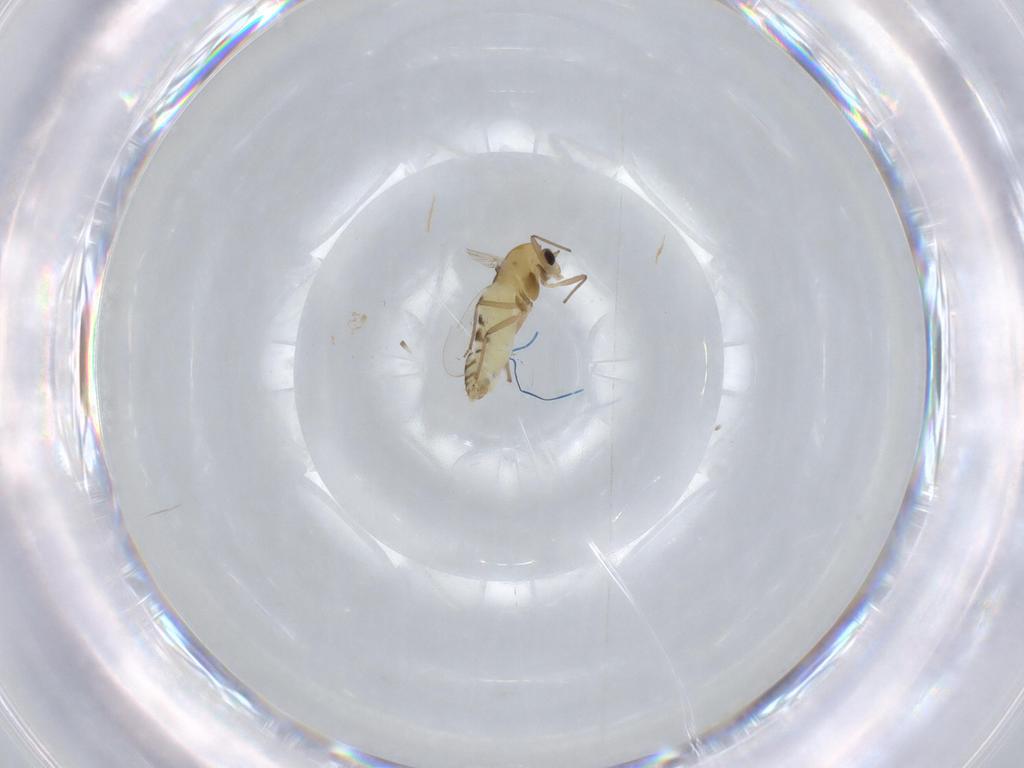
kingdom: Animalia
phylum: Arthropoda
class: Insecta
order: Diptera
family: Chironomidae
